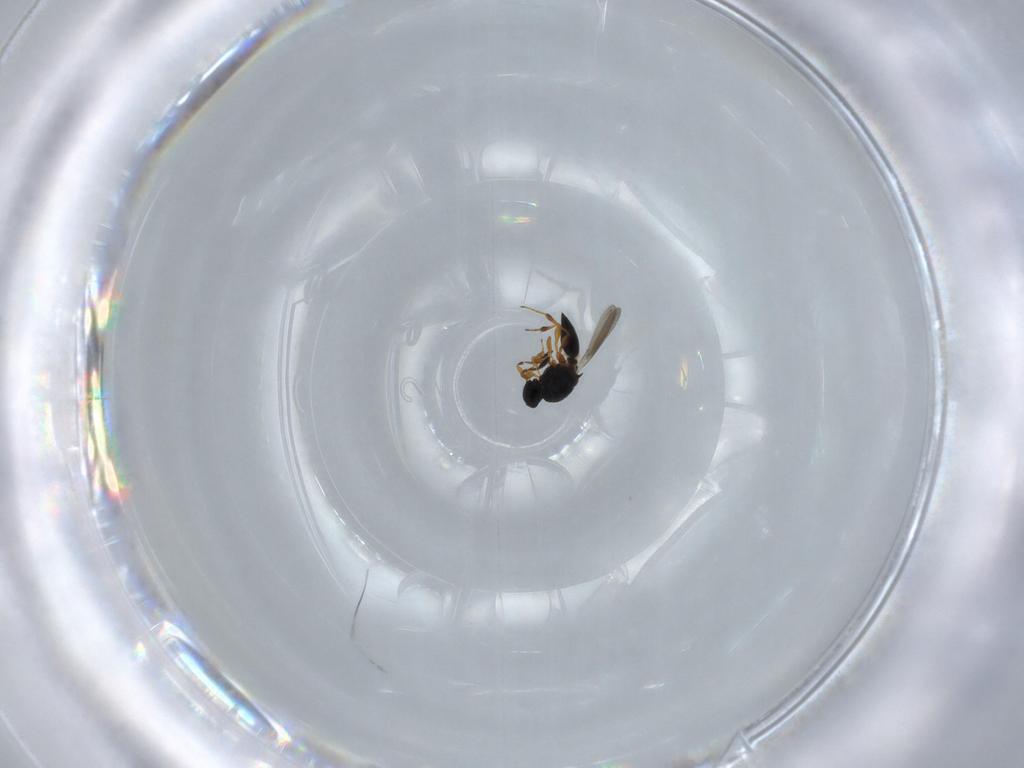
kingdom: Animalia
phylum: Arthropoda
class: Insecta
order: Hymenoptera
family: Platygastridae
